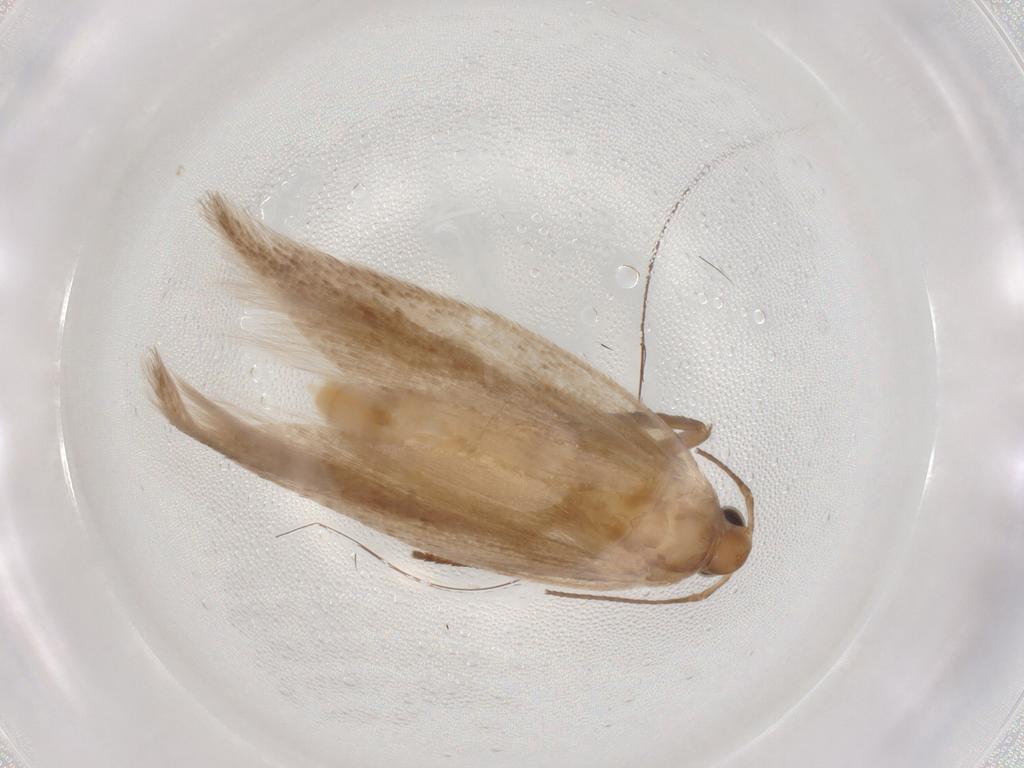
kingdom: Animalia
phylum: Arthropoda
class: Insecta
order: Lepidoptera
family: Gelechiidae
